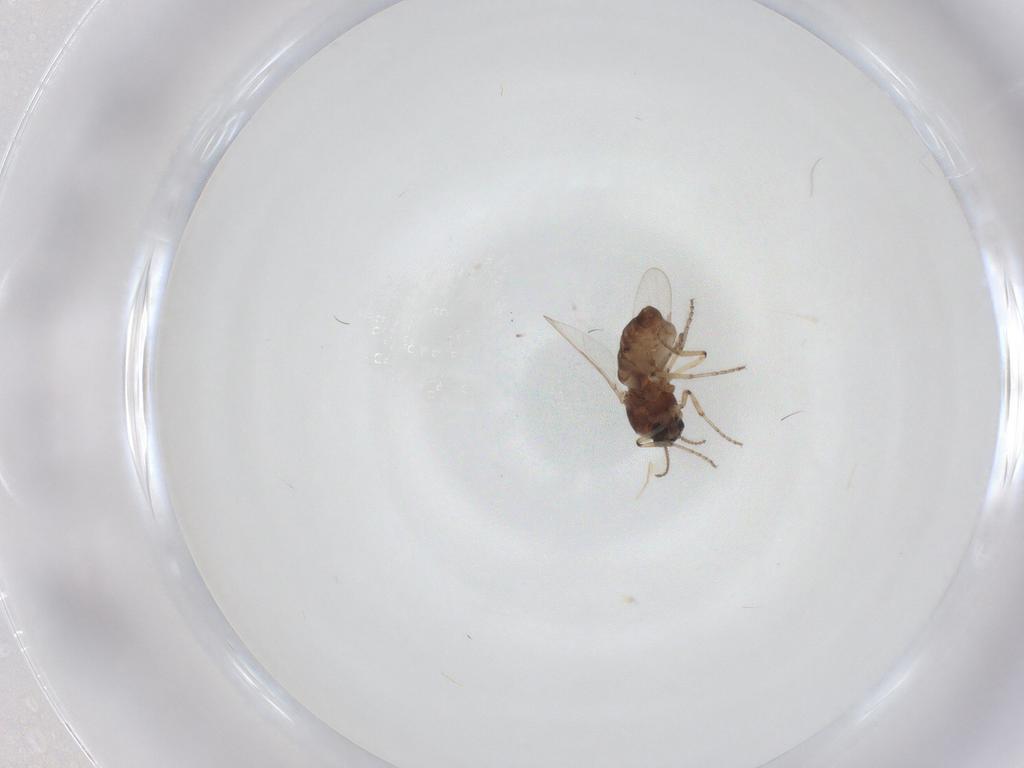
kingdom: Animalia
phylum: Arthropoda
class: Insecta
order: Diptera
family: Ceratopogonidae
